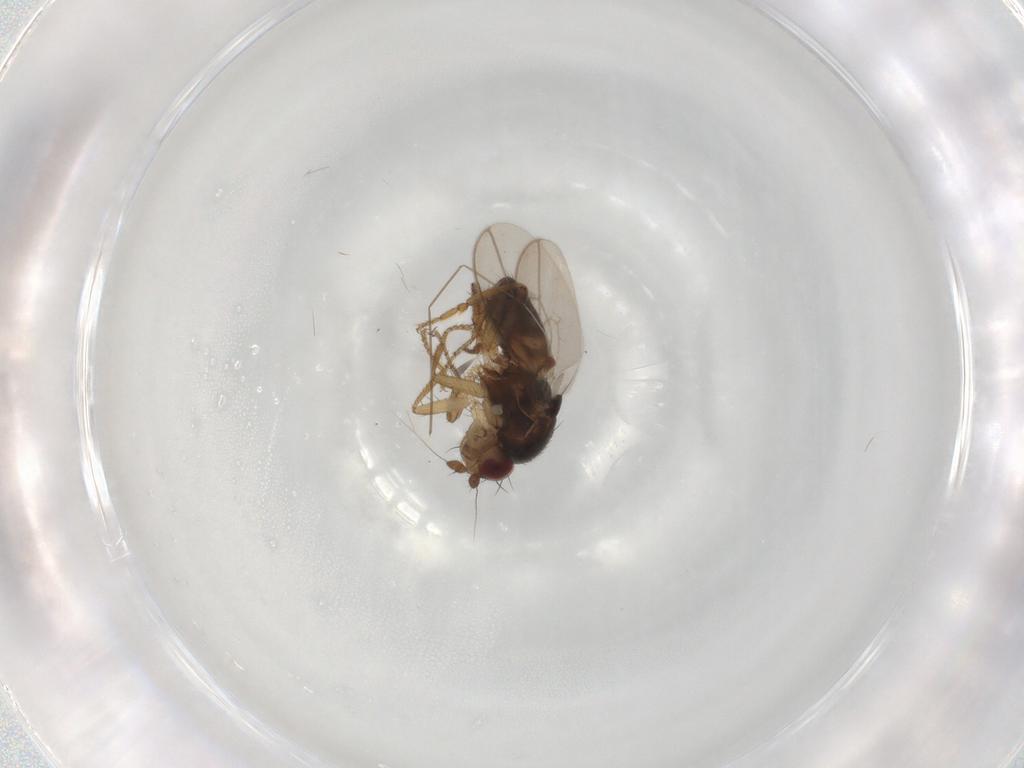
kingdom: Animalia
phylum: Arthropoda
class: Insecta
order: Diptera
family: Sphaeroceridae
